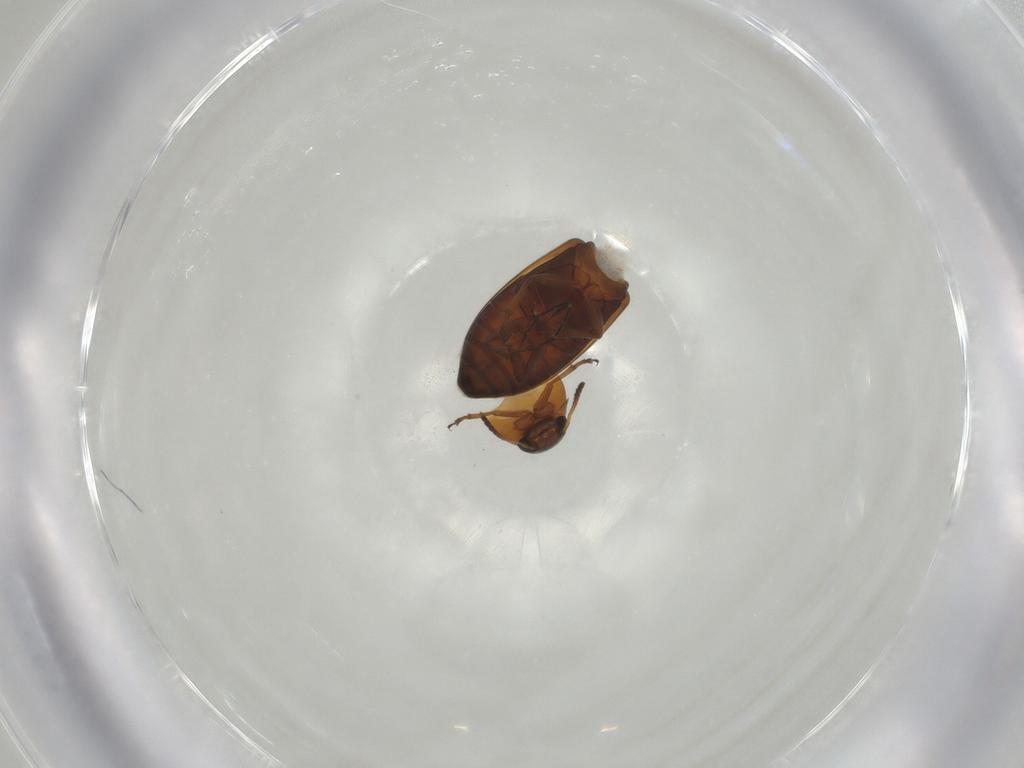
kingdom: Animalia
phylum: Arthropoda
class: Insecta
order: Coleoptera
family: Scraptiidae
